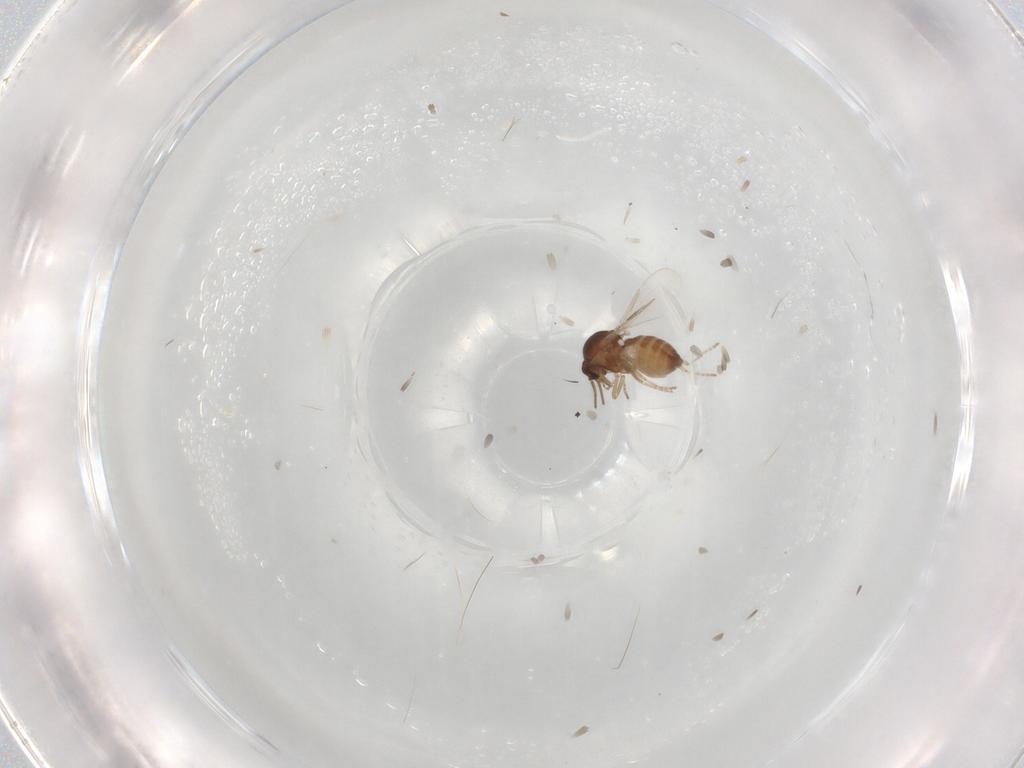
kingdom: Animalia
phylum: Arthropoda
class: Insecta
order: Diptera
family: Ceratopogonidae
